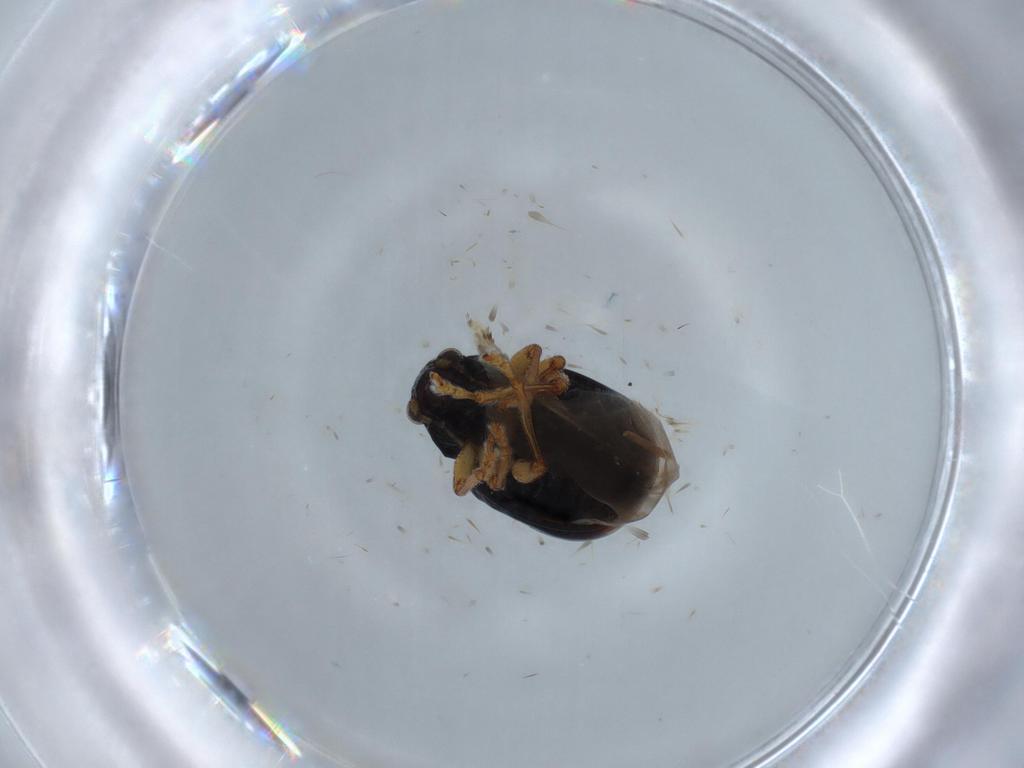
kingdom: Animalia
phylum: Arthropoda
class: Insecta
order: Coleoptera
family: Chrysomelidae
